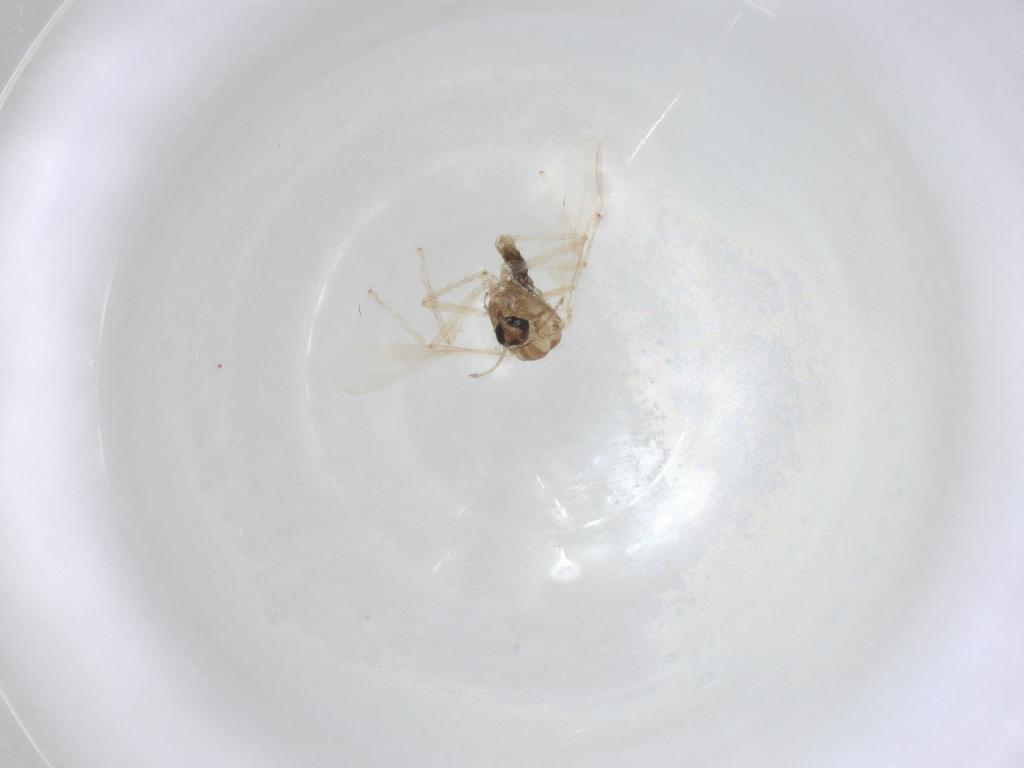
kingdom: Animalia
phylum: Arthropoda
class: Insecta
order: Diptera
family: Chironomidae
